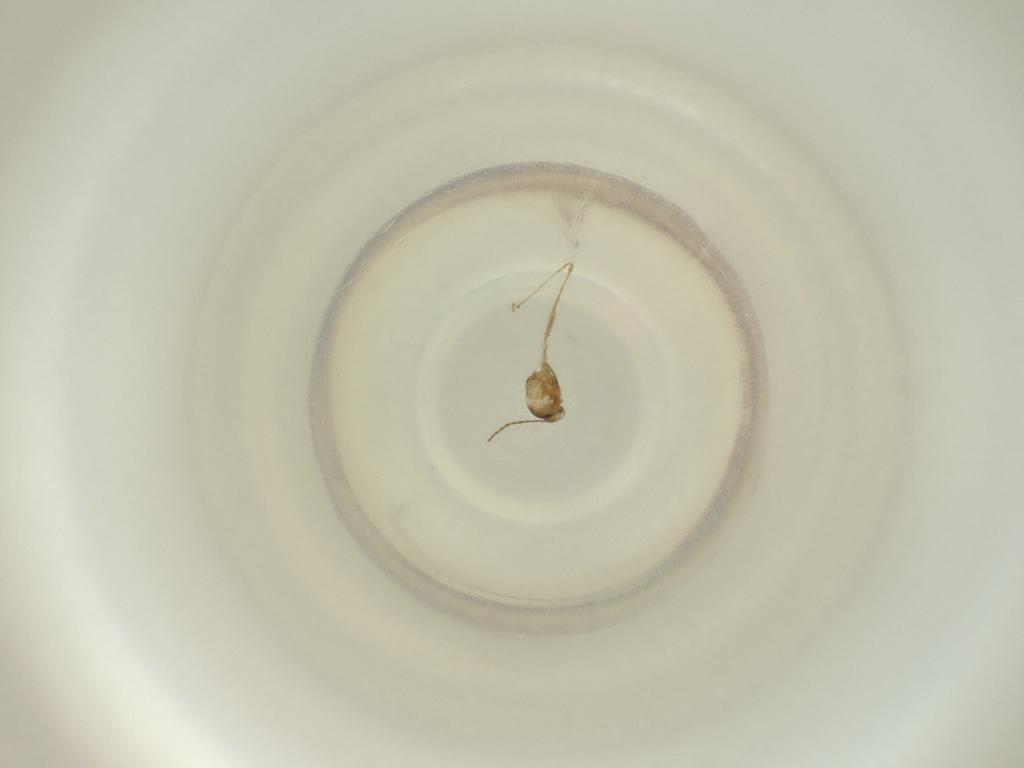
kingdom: Animalia
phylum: Arthropoda
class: Insecta
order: Diptera
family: Cecidomyiidae
